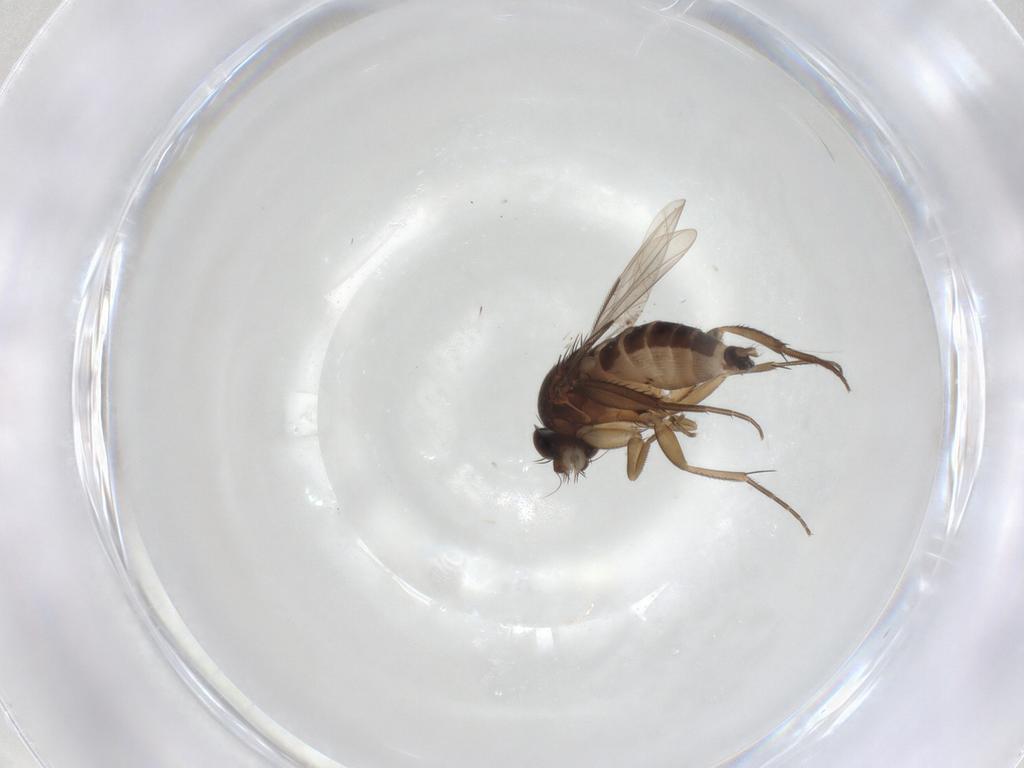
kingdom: Animalia
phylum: Arthropoda
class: Insecta
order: Diptera
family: Phoridae
